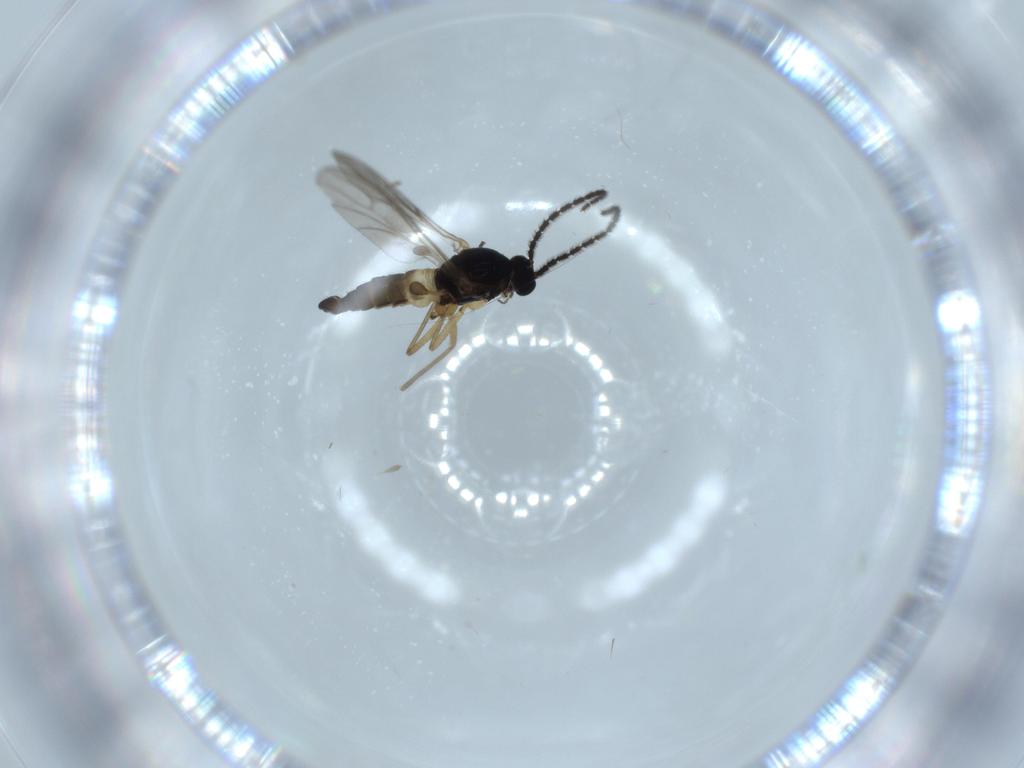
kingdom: Animalia
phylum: Arthropoda
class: Insecta
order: Diptera
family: Sciaridae
